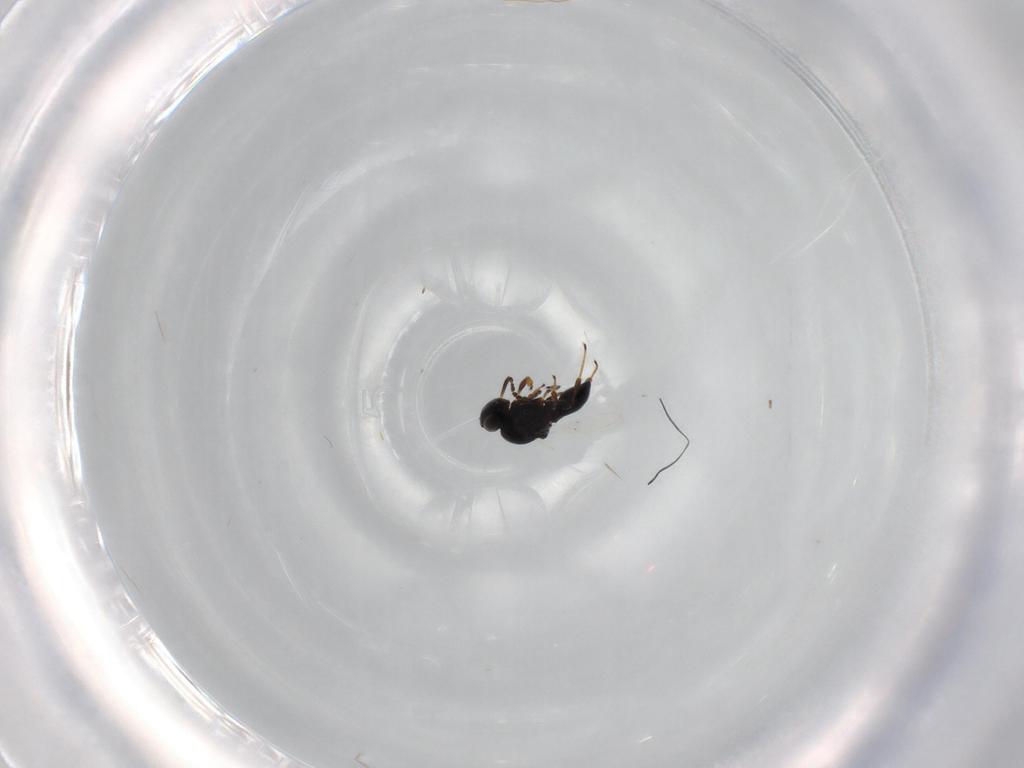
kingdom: Animalia
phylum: Arthropoda
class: Insecta
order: Hymenoptera
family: Platygastridae
